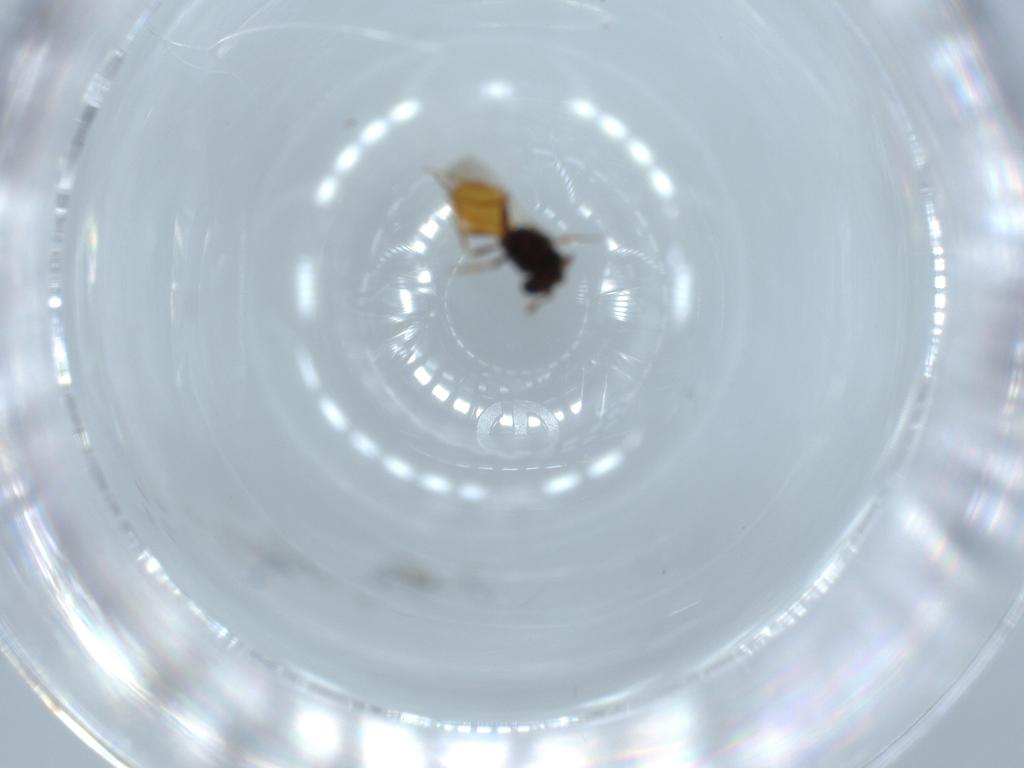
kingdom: Animalia
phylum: Arthropoda
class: Insecta
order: Hymenoptera
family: Scelionidae
